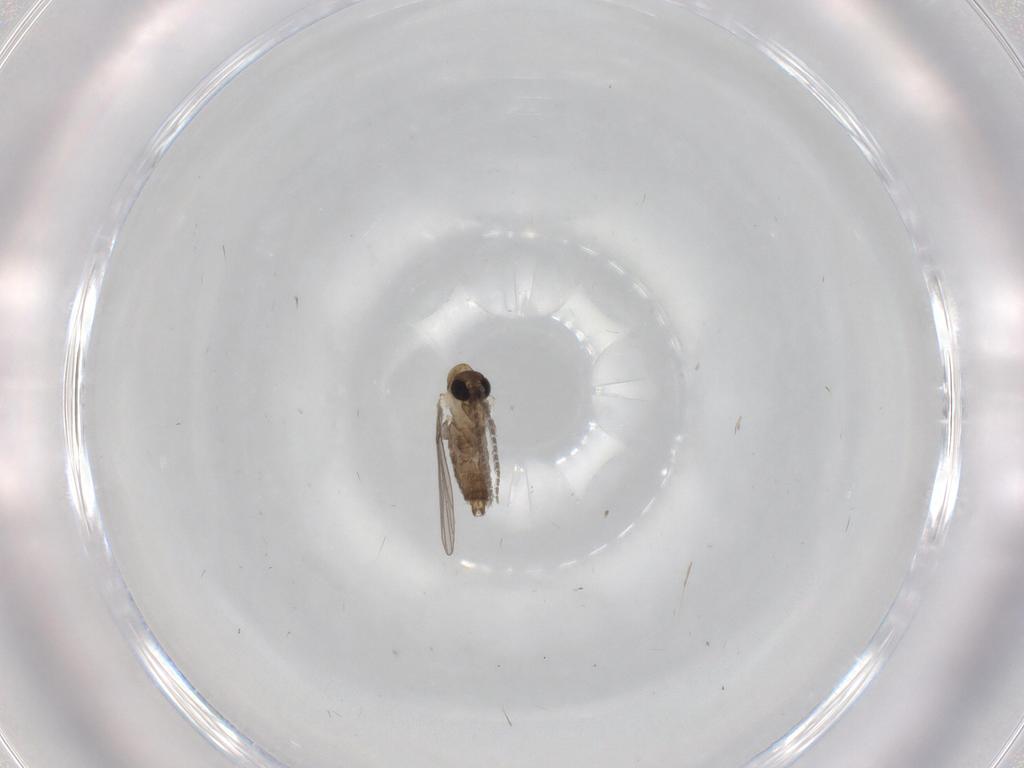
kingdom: Animalia
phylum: Arthropoda
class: Insecta
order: Diptera
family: Psychodidae
